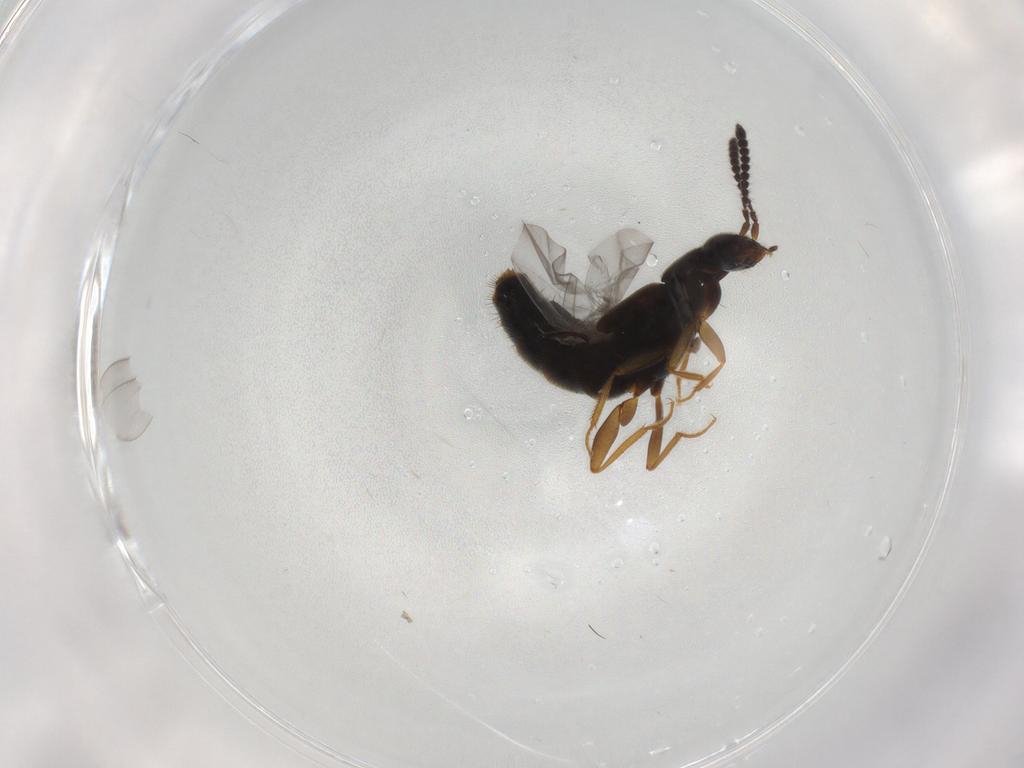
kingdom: Animalia
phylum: Arthropoda
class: Insecta
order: Coleoptera
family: Staphylinidae
